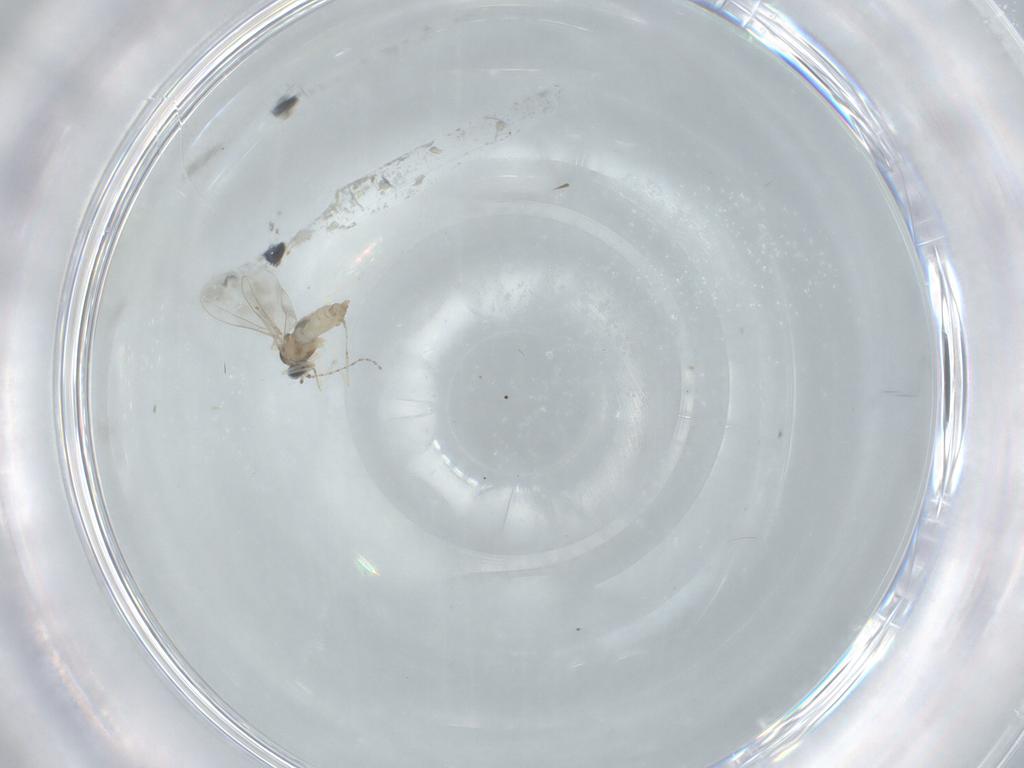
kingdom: Animalia
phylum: Arthropoda
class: Insecta
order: Diptera
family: Cecidomyiidae
